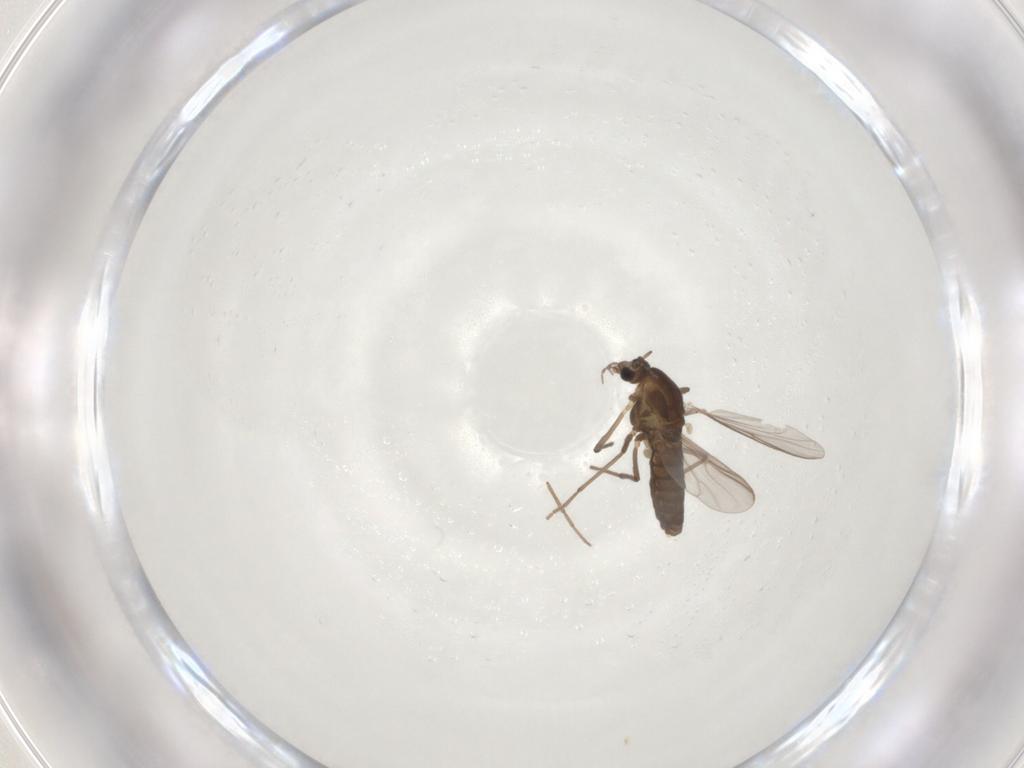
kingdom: Animalia
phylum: Arthropoda
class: Insecta
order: Diptera
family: Chironomidae
